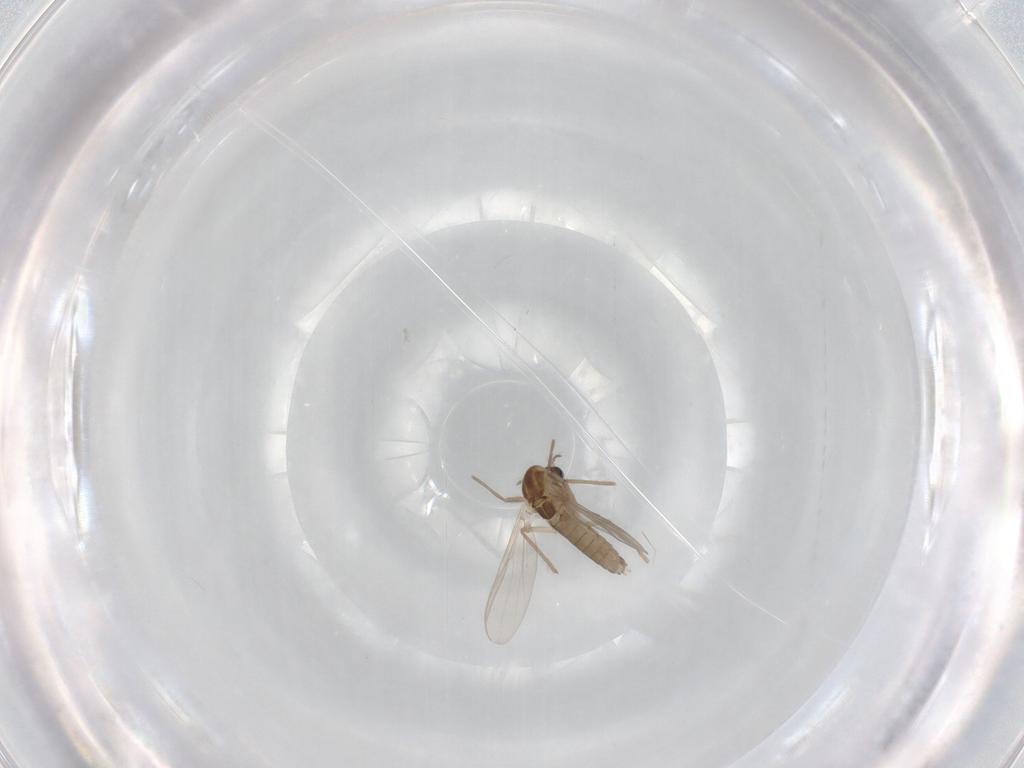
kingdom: Animalia
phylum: Arthropoda
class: Insecta
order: Diptera
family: Chironomidae
